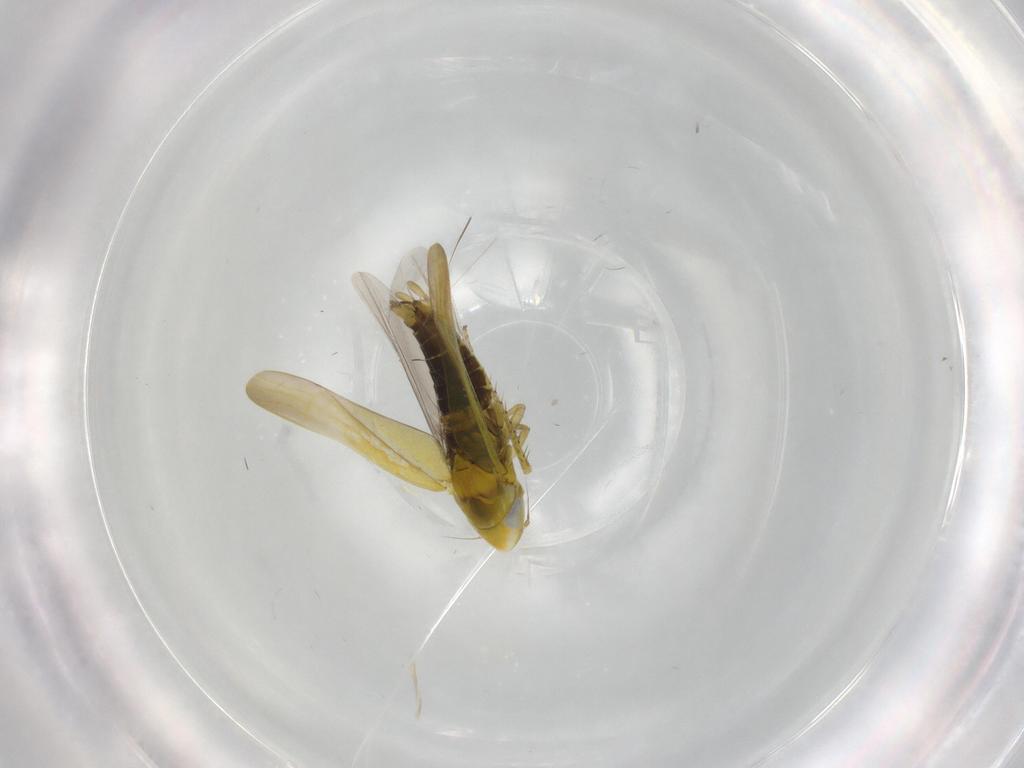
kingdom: Animalia
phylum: Arthropoda
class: Insecta
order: Hemiptera
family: Cicadellidae
